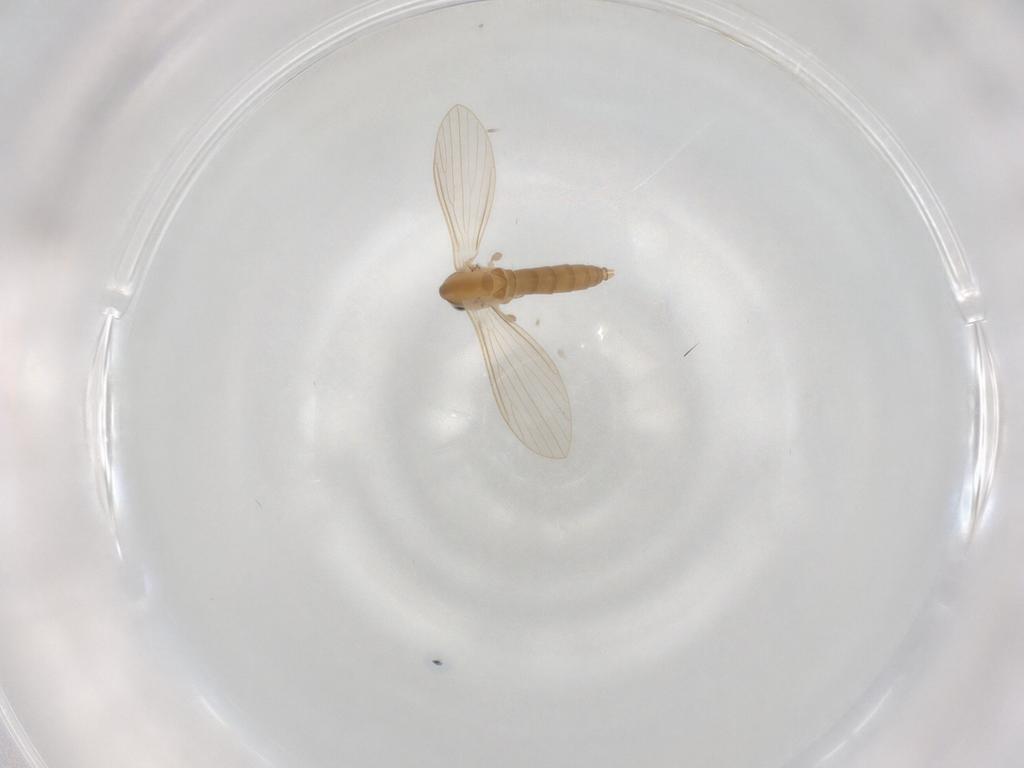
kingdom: Animalia
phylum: Arthropoda
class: Insecta
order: Diptera
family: Psychodidae
